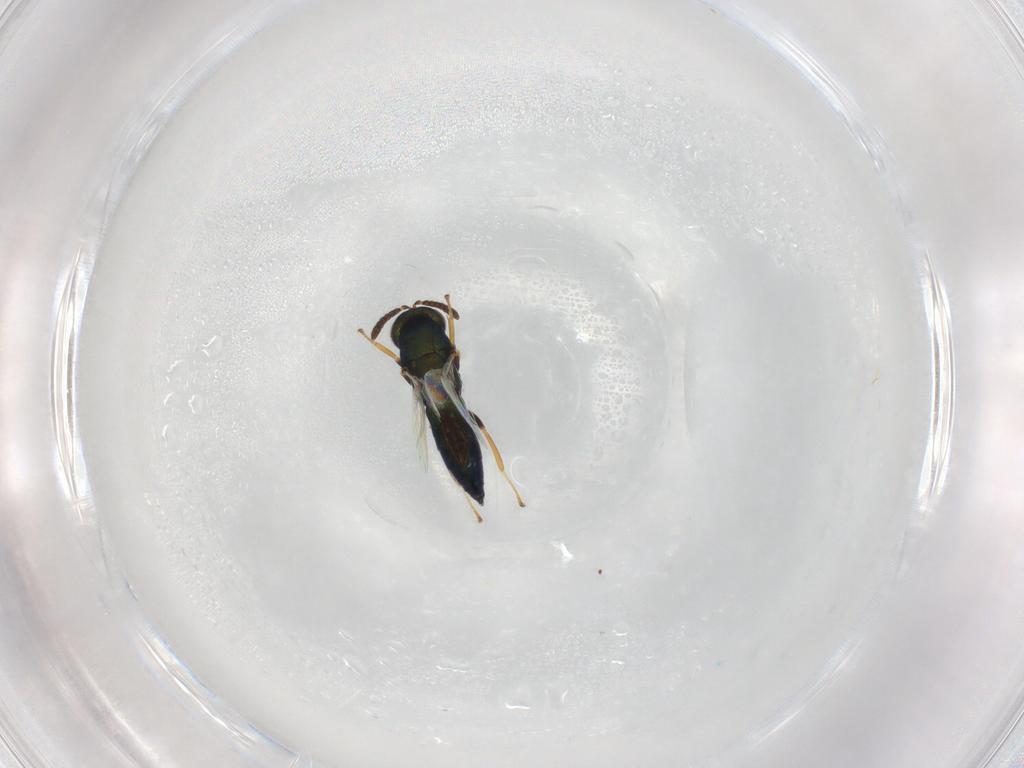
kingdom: Animalia
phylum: Arthropoda
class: Insecta
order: Hymenoptera
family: Agaonidae
